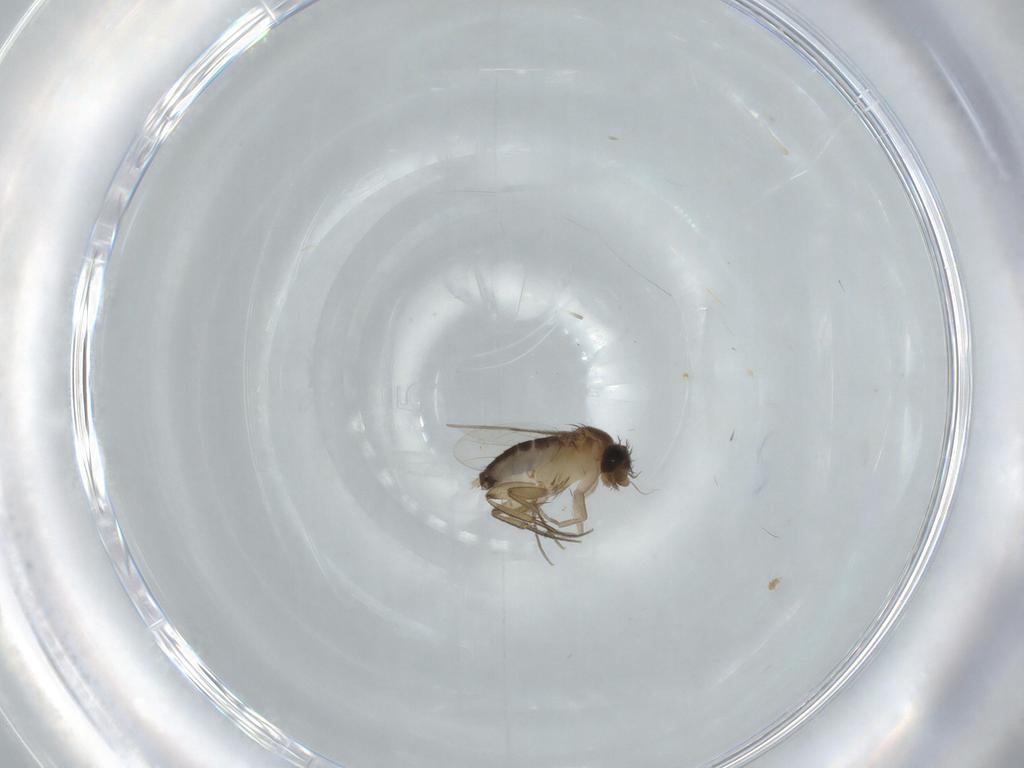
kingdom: Animalia
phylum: Arthropoda
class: Insecta
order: Diptera
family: Phoridae
